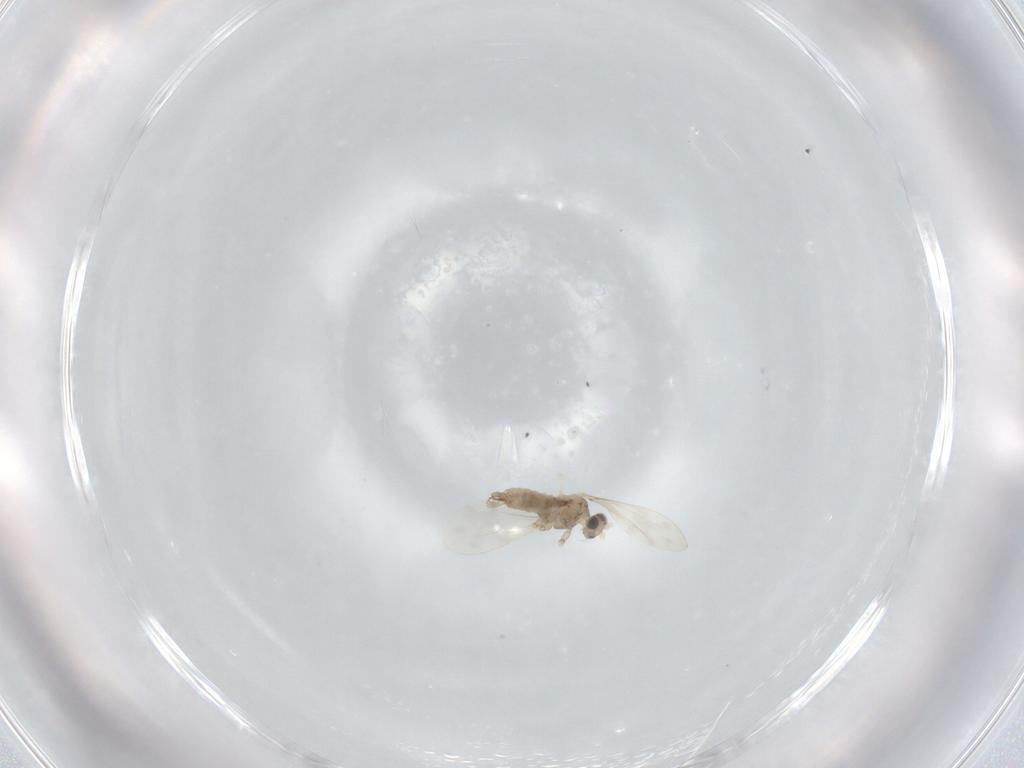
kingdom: Animalia
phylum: Arthropoda
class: Insecta
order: Diptera
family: Cecidomyiidae
